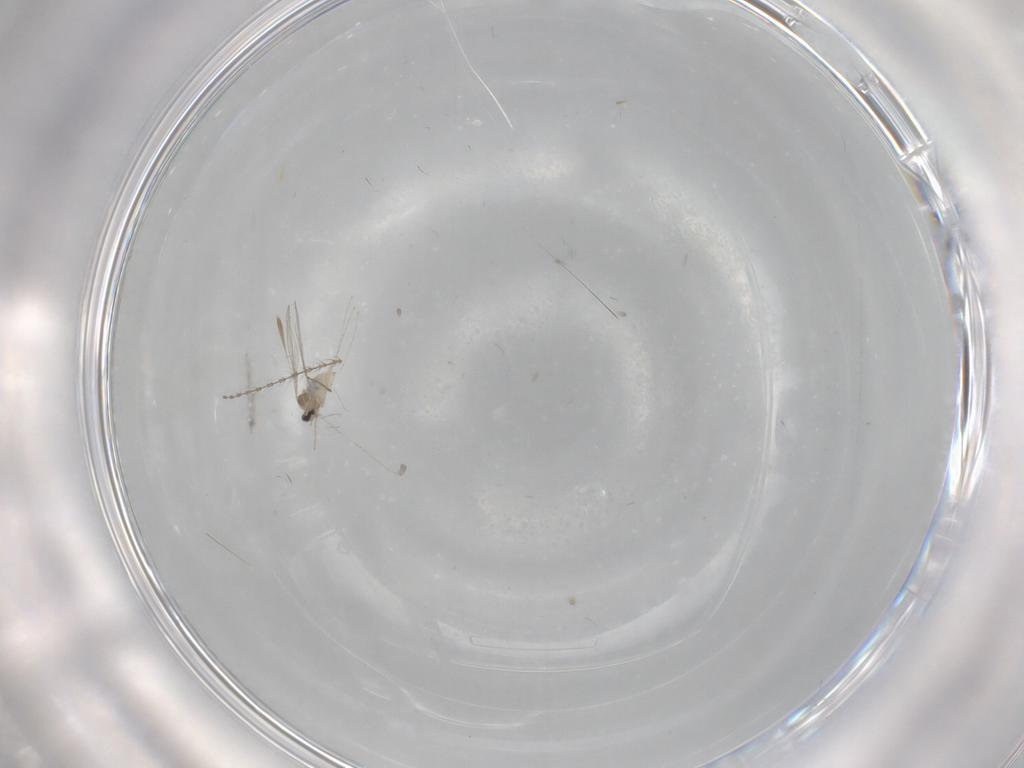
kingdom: Animalia
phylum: Arthropoda
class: Insecta
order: Diptera
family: Cecidomyiidae
